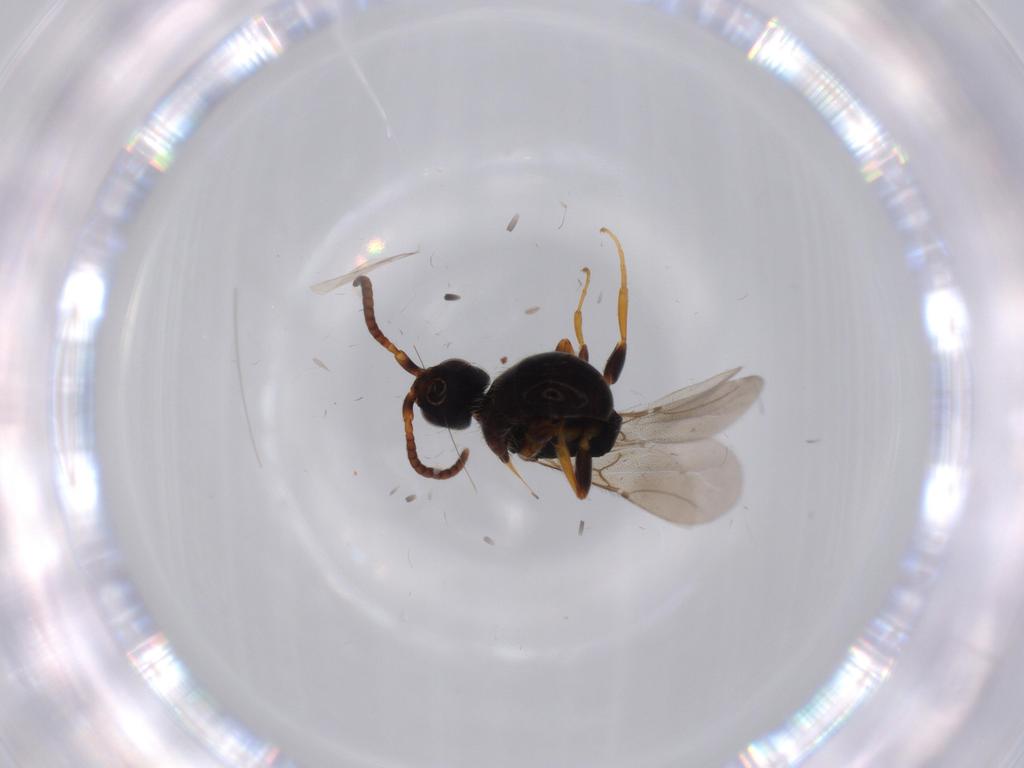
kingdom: Animalia
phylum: Arthropoda
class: Insecta
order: Hymenoptera
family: Bethylidae
